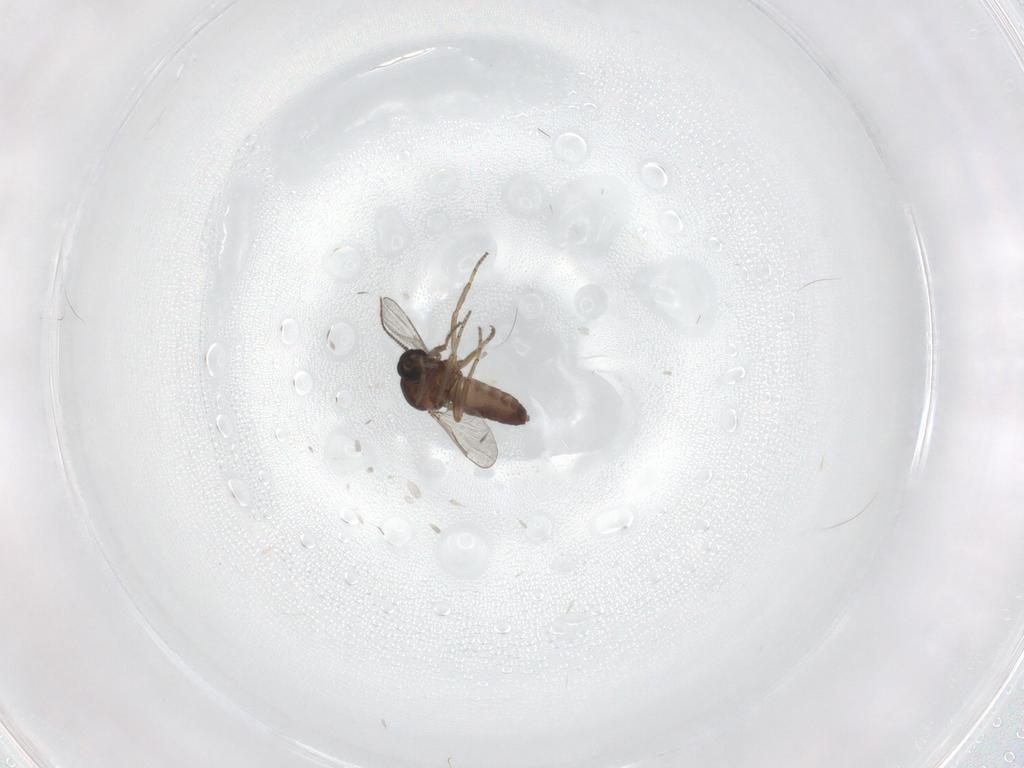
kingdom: Animalia
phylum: Arthropoda
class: Insecta
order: Diptera
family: Ceratopogonidae
